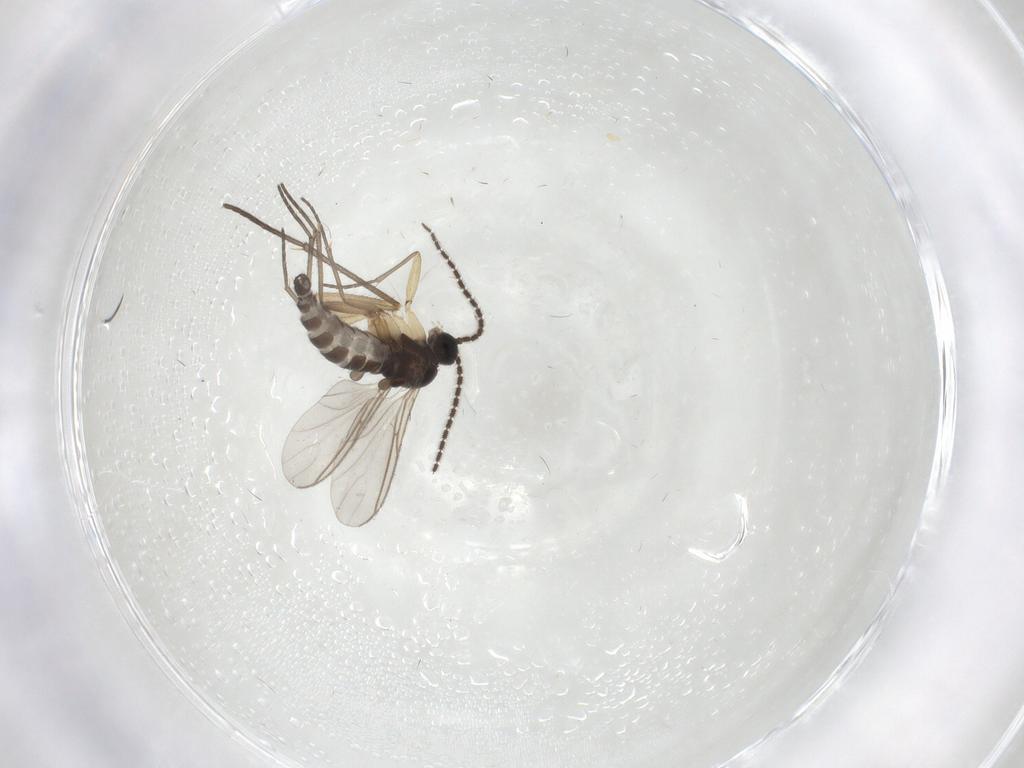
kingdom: Animalia
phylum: Arthropoda
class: Insecta
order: Diptera
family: Sciaridae
